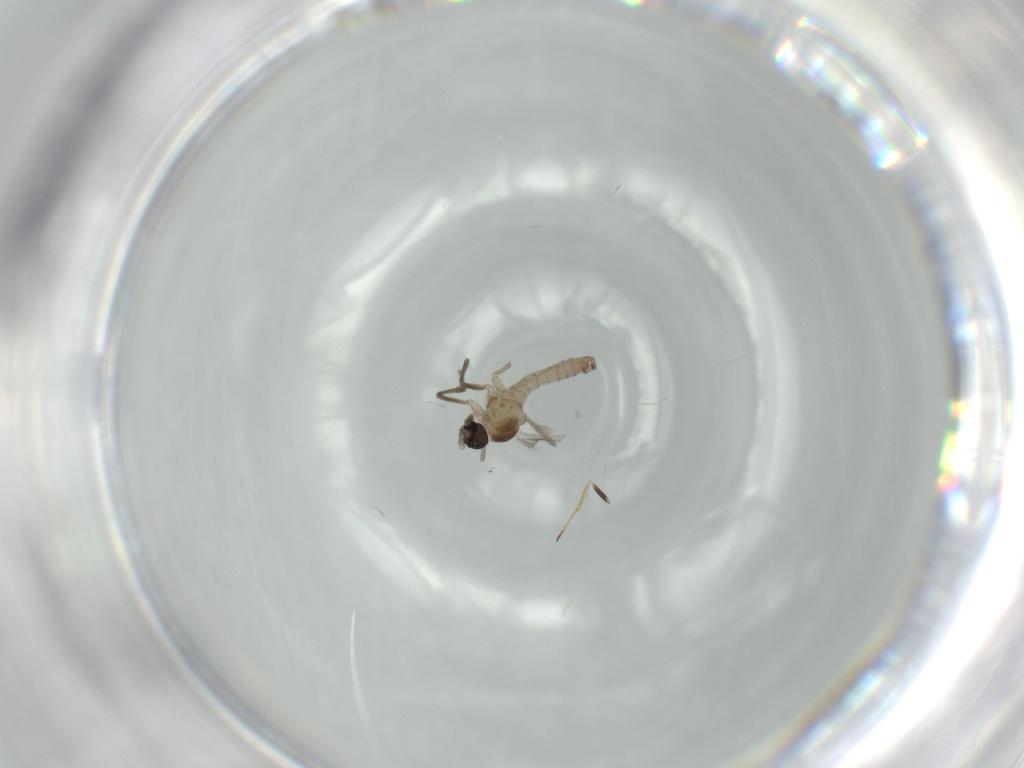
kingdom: Animalia
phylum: Arthropoda
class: Insecta
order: Diptera
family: Cecidomyiidae
